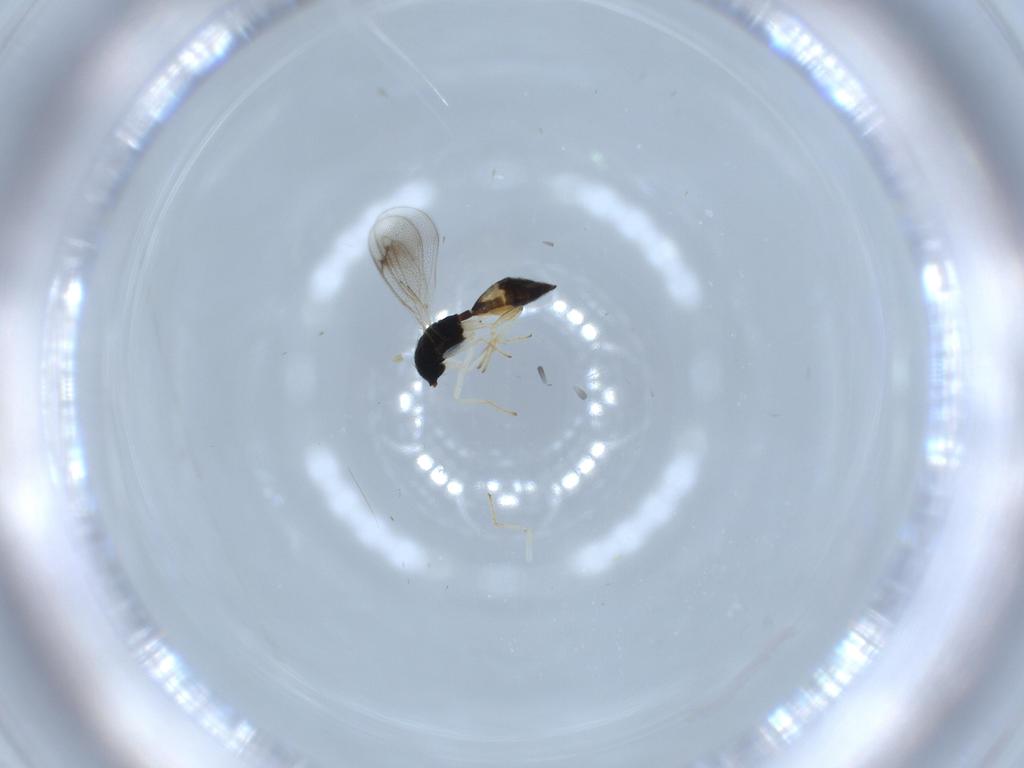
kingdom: Animalia
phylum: Arthropoda
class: Insecta
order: Hymenoptera
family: Eulophidae
